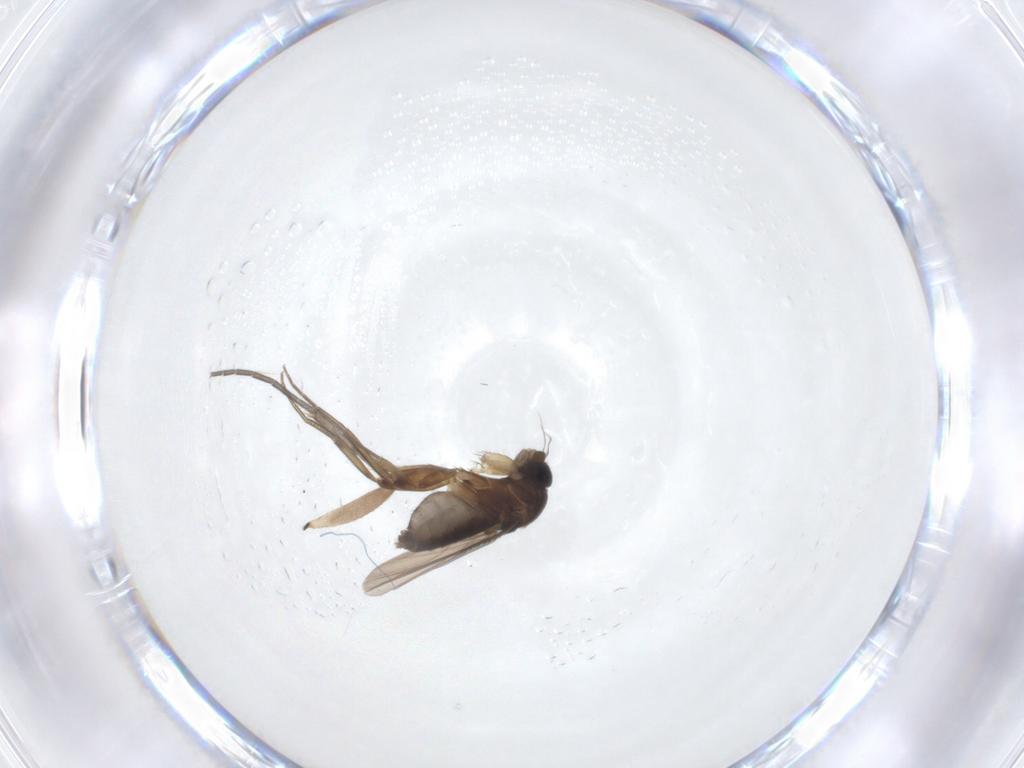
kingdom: Animalia
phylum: Arthropoda
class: Insecta
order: Diptera
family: Phoridae
